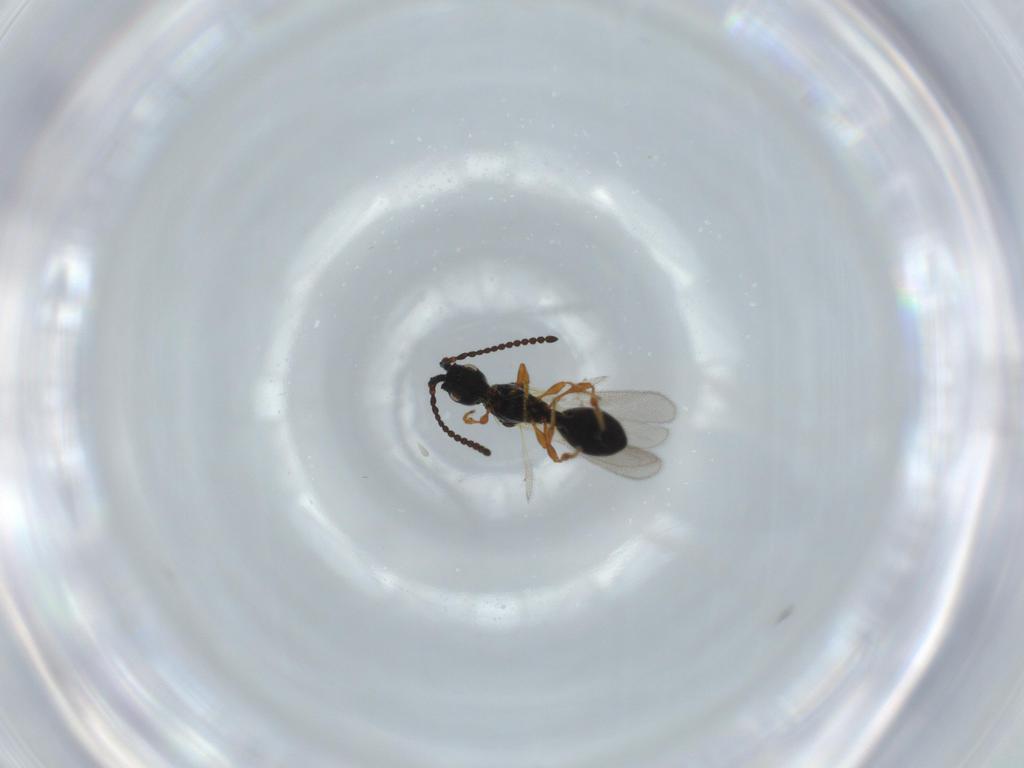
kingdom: Animalia
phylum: Arthropoda
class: Insecta
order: Hymenoptera
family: Diapriidae
